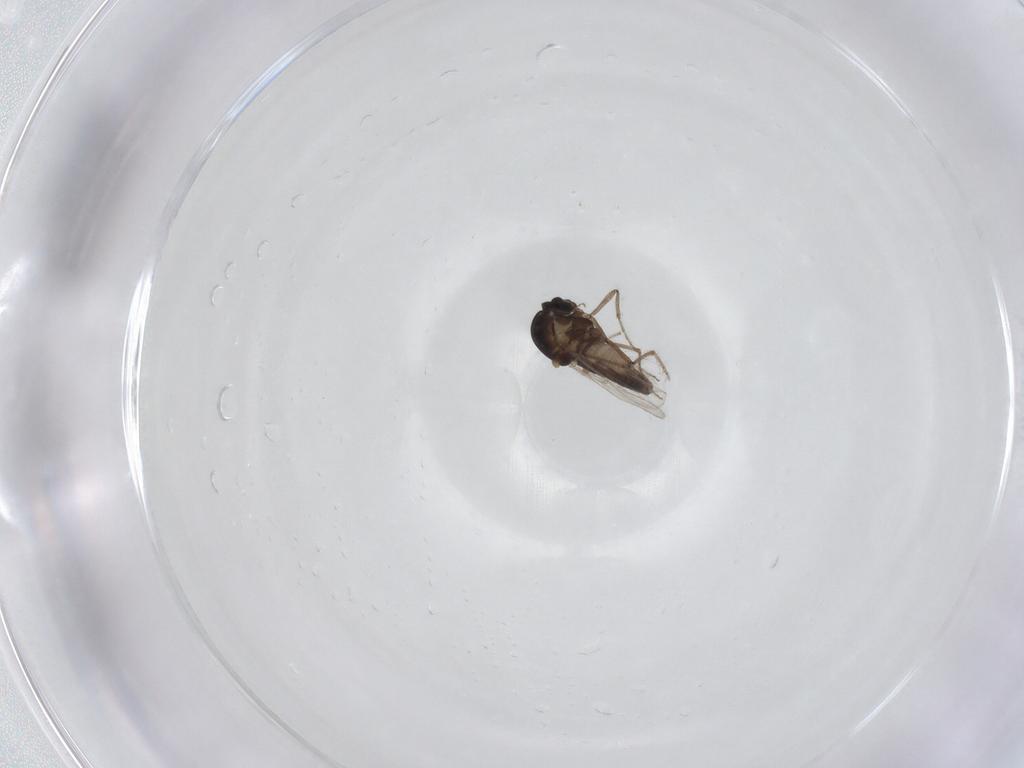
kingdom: Animalia
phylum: Arthropoda
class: Insecta
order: Diptera
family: Ceratopogonidae
